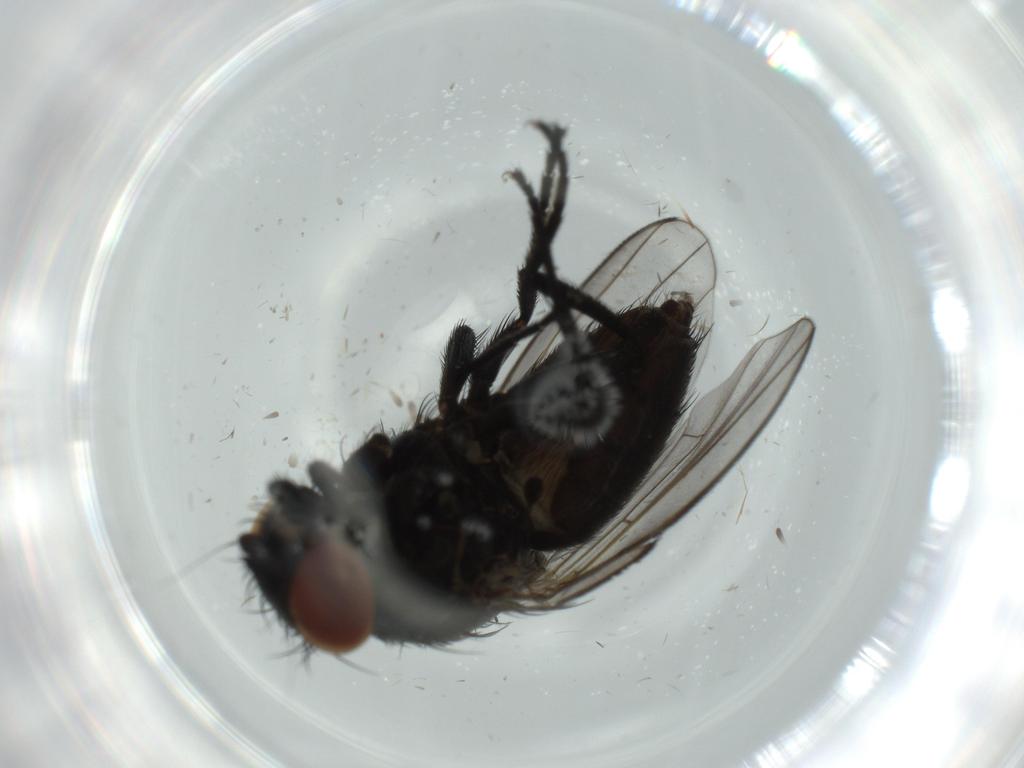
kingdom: Animalia
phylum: Arthropoda
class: Insecta
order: Diptera
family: Milichiidae
